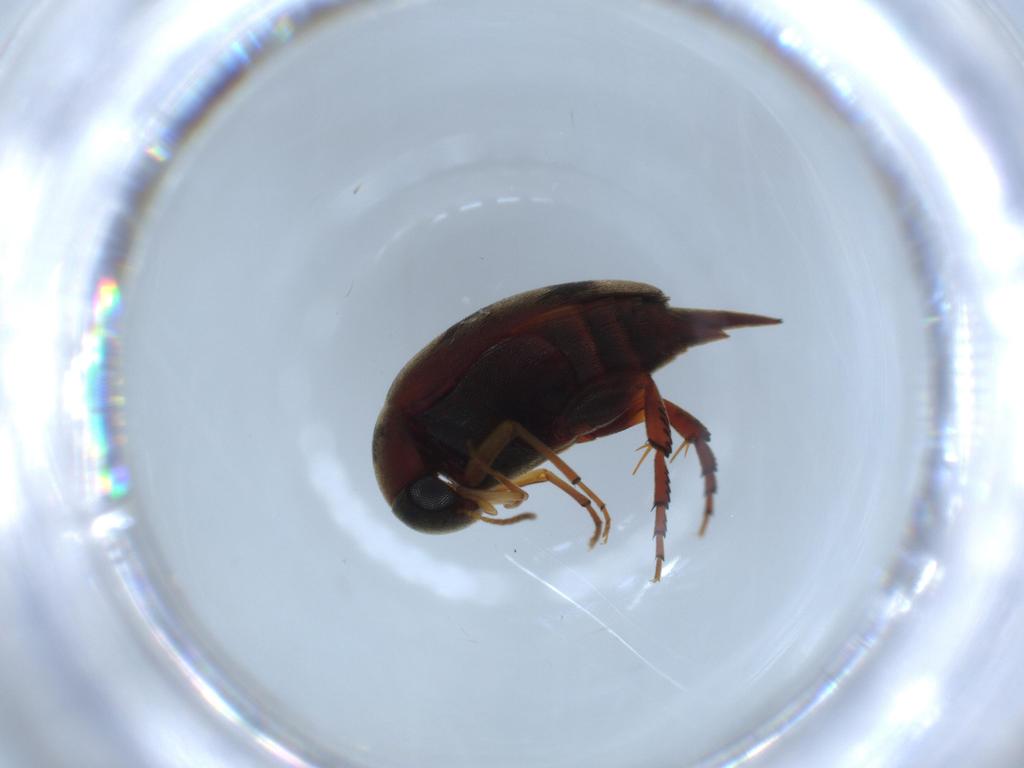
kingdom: Animalia
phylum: Arthropoda
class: Insecta
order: Coleoptera
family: Mordellidae
